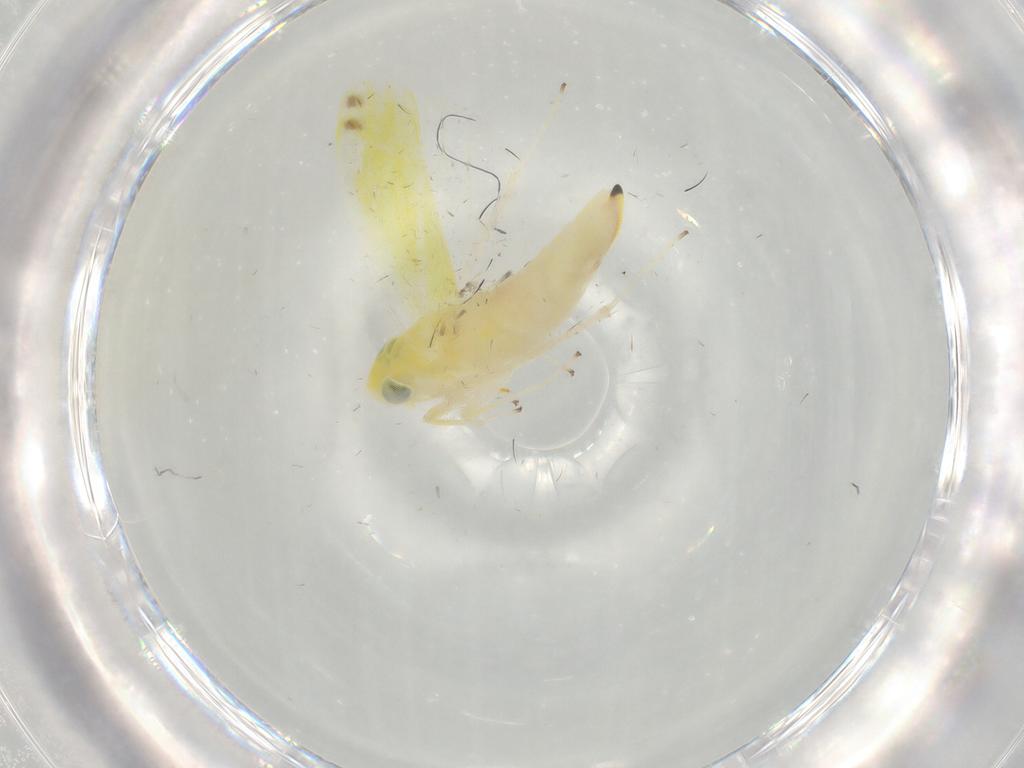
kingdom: Animalia
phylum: Arthropoda
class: Insecta
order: Hemiptera
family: Cicadellidae
